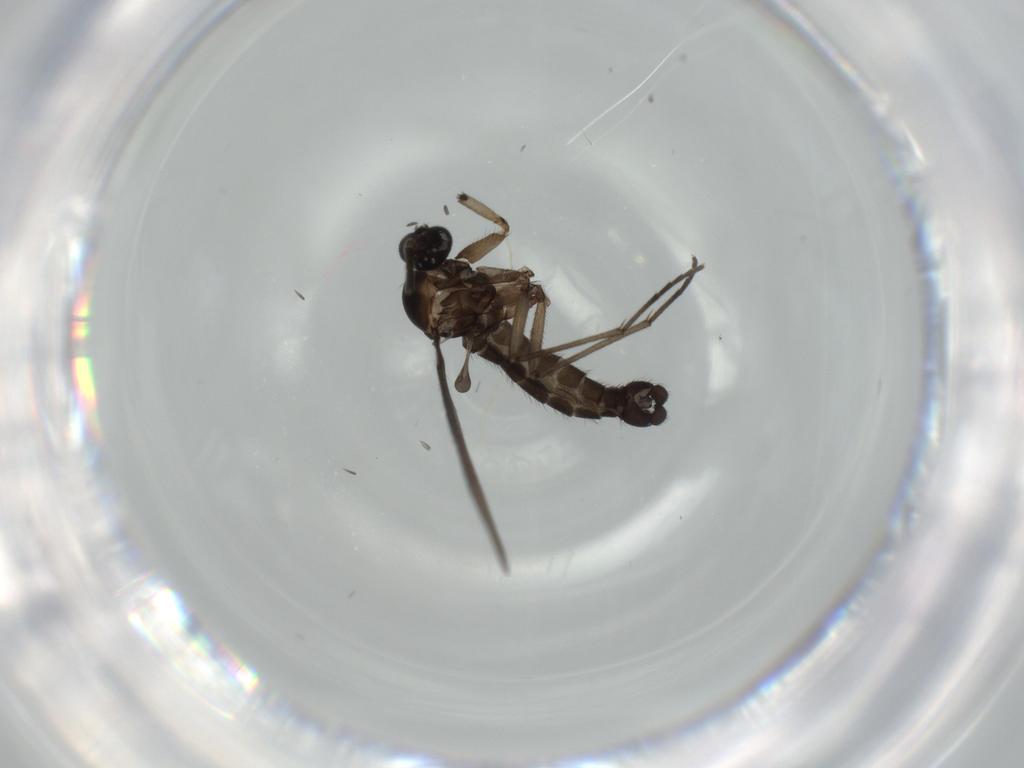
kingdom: Animalia
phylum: Arthropoda
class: Insecta
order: Diptera
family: Sciaridae
